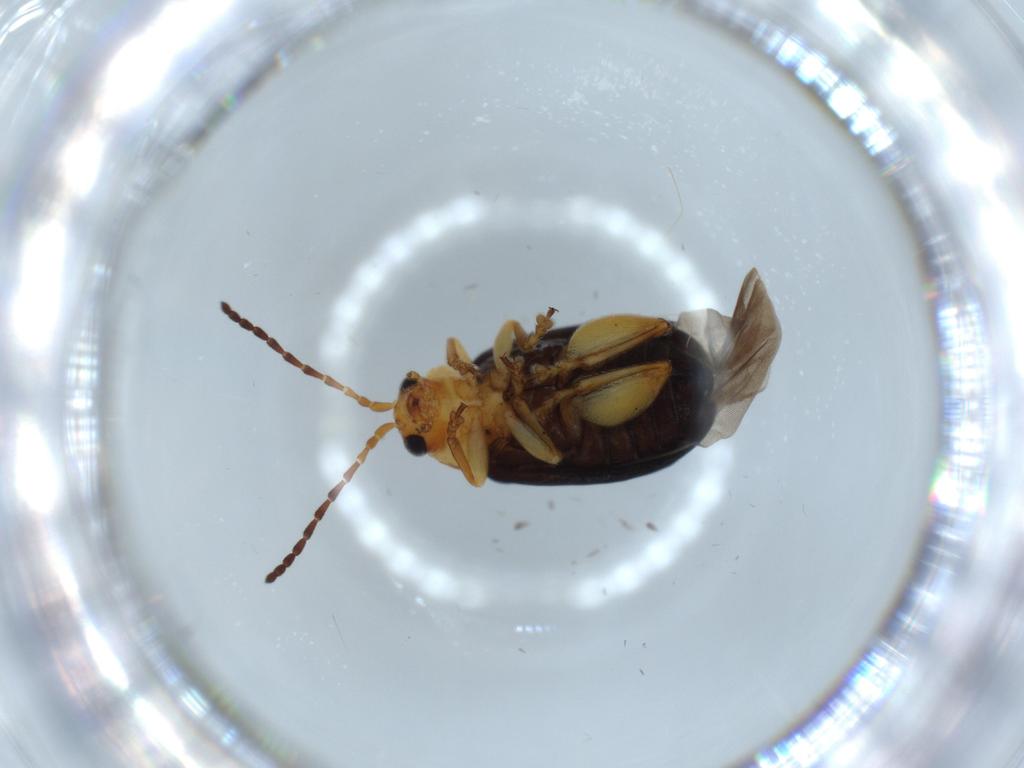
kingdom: Animalia
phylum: Arthropoda
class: Insecta
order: Coleoptera
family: Chrysomelidae
